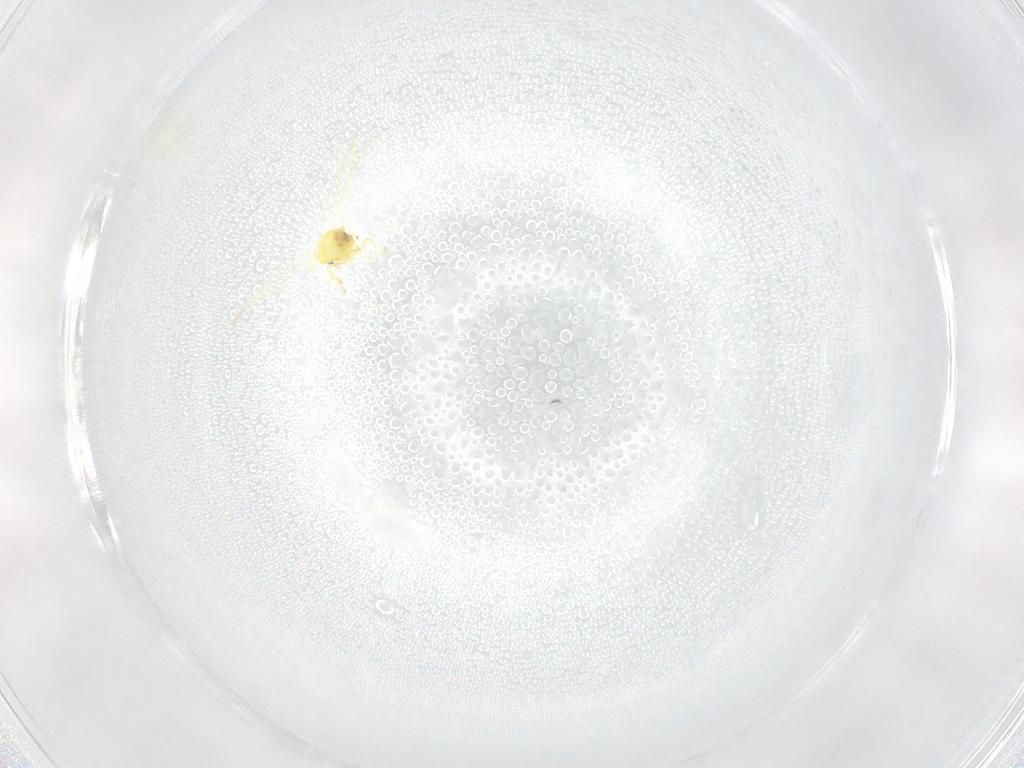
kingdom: Animalia
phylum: Arthropoda
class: Insecta
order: Hemiptera
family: Aleyrodidae
